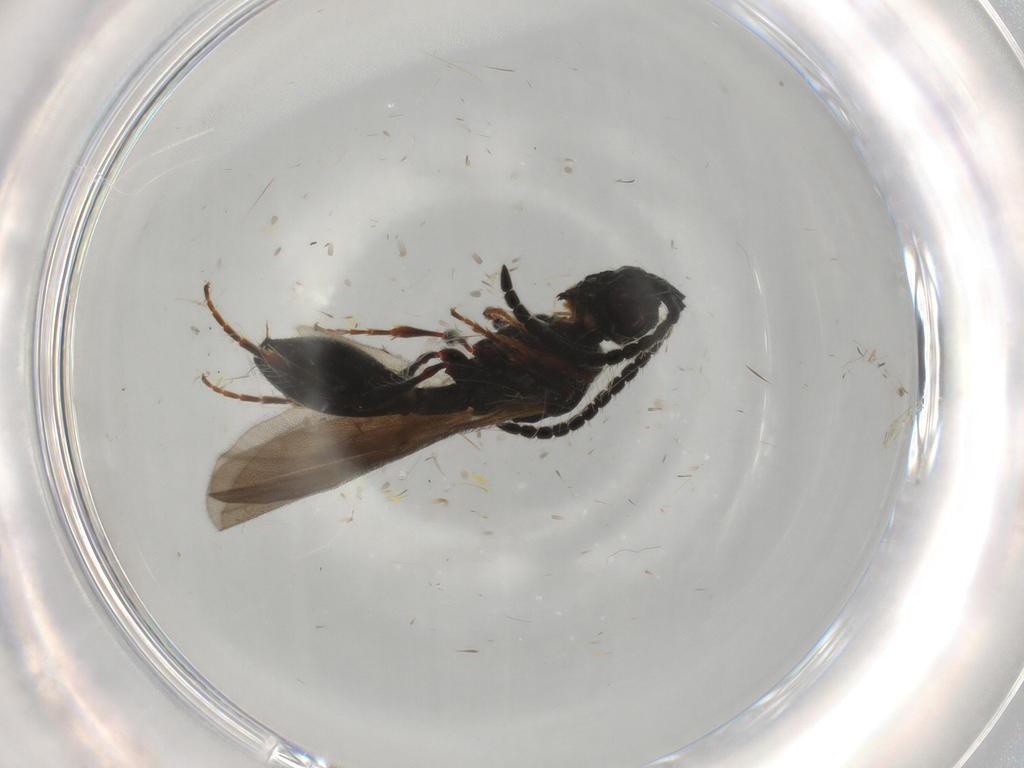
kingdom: Animalia
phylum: Arthropoda
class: Insecta
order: Hymenoptera
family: Diapriidae
